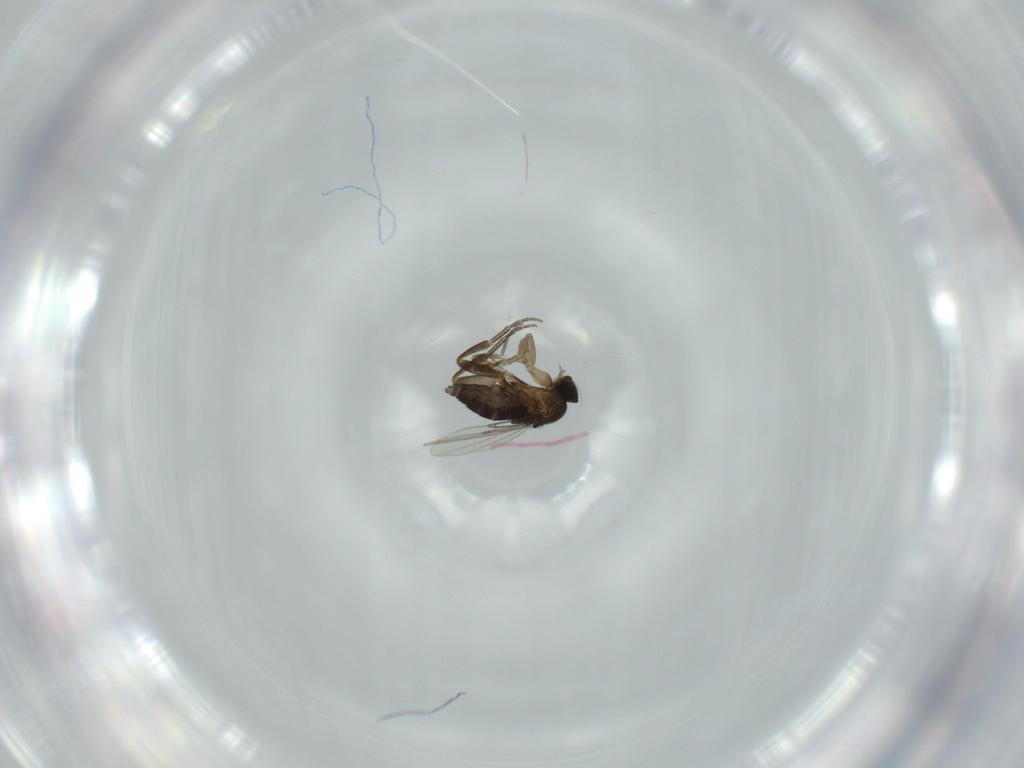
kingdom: Animalia
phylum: Arthropoda
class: Insecta
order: Diptera
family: Phoridae
